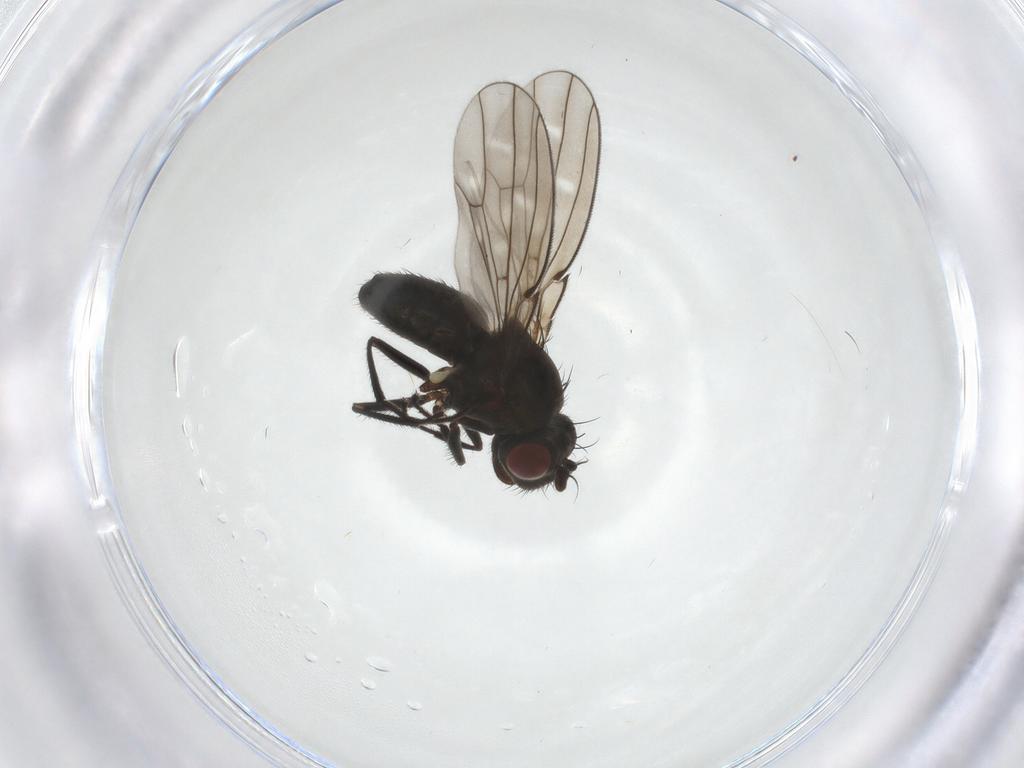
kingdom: Animalia
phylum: Arthropoda
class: Insecta
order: Diptera
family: Ephydridae
